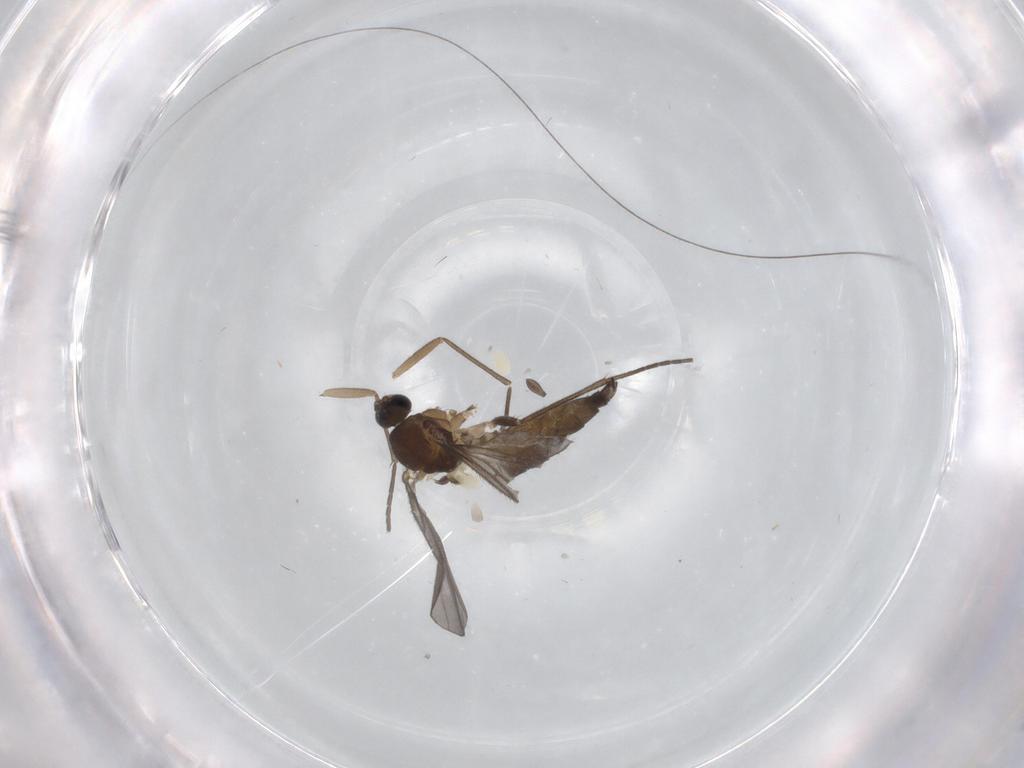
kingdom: Animalia
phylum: Arthropoda
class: Insecta
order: Diptera
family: Sciaridae
